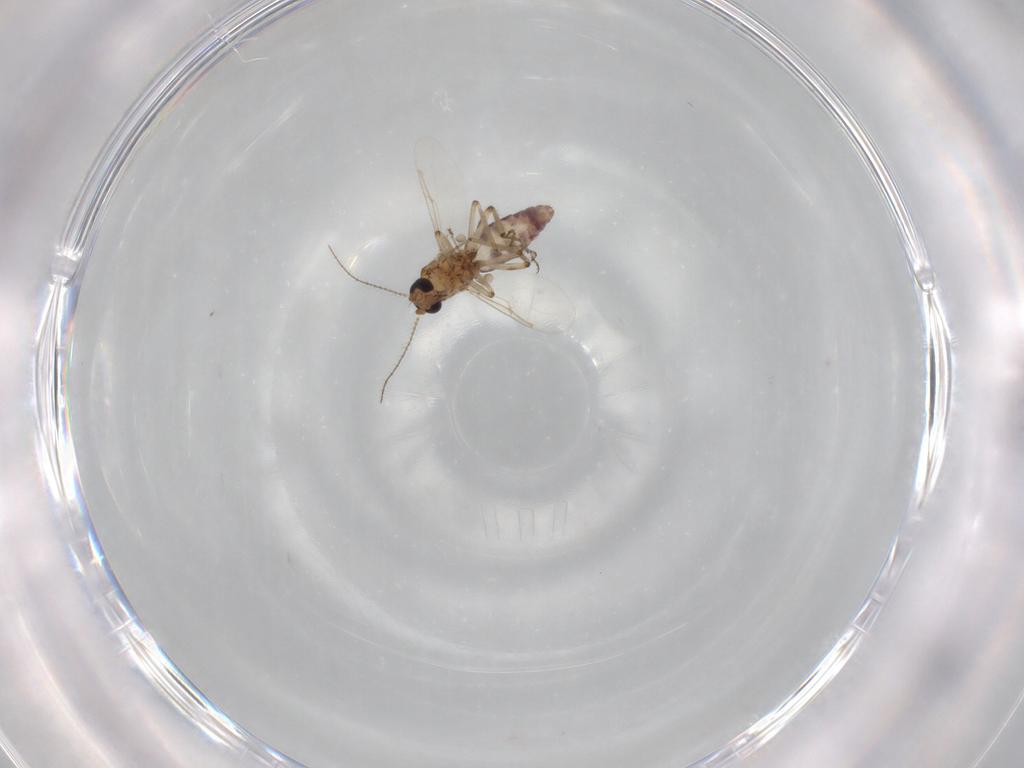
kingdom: Animalia
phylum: Arthropoda
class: Insecta
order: Diptera
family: Ceratopogonidae
